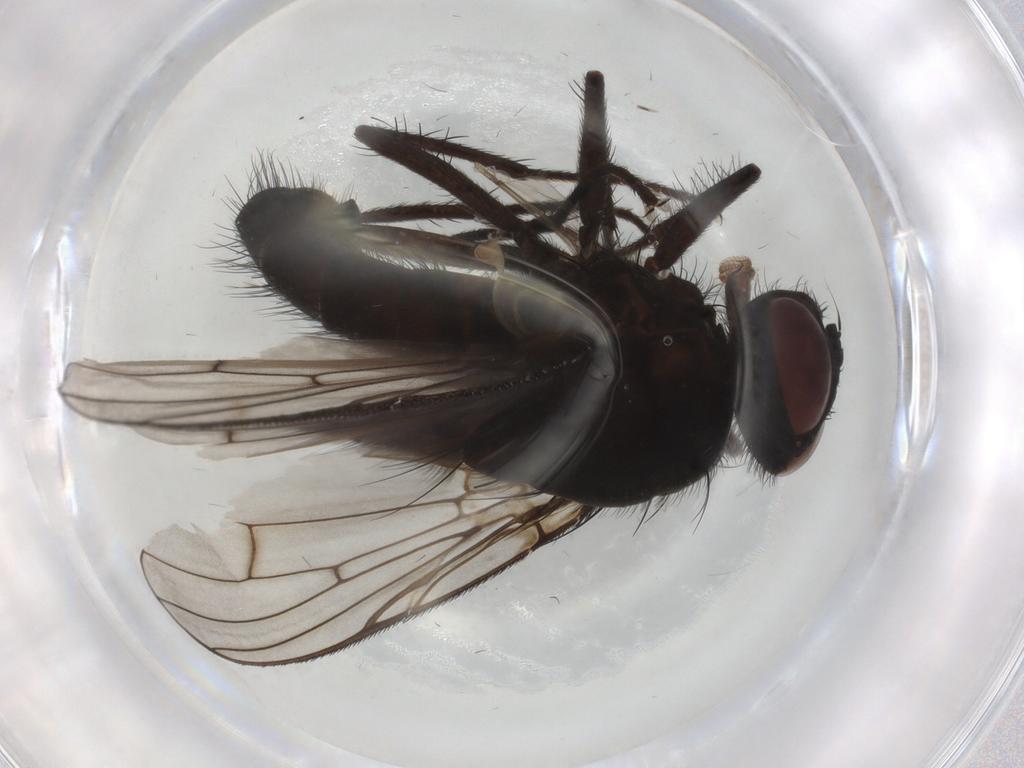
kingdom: Animalia
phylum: Arthropoda
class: Insecta
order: Diptera
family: Muscidae
